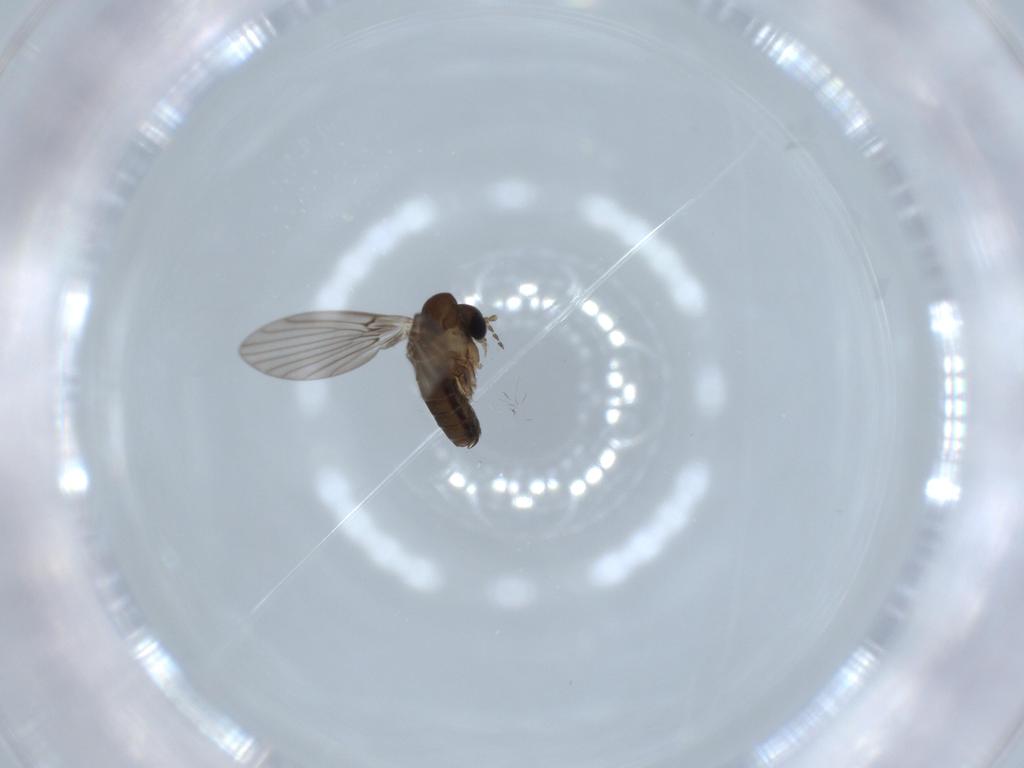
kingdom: Animalia
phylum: Arthropoda
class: Insecta
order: Diptera
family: Psychodidae
